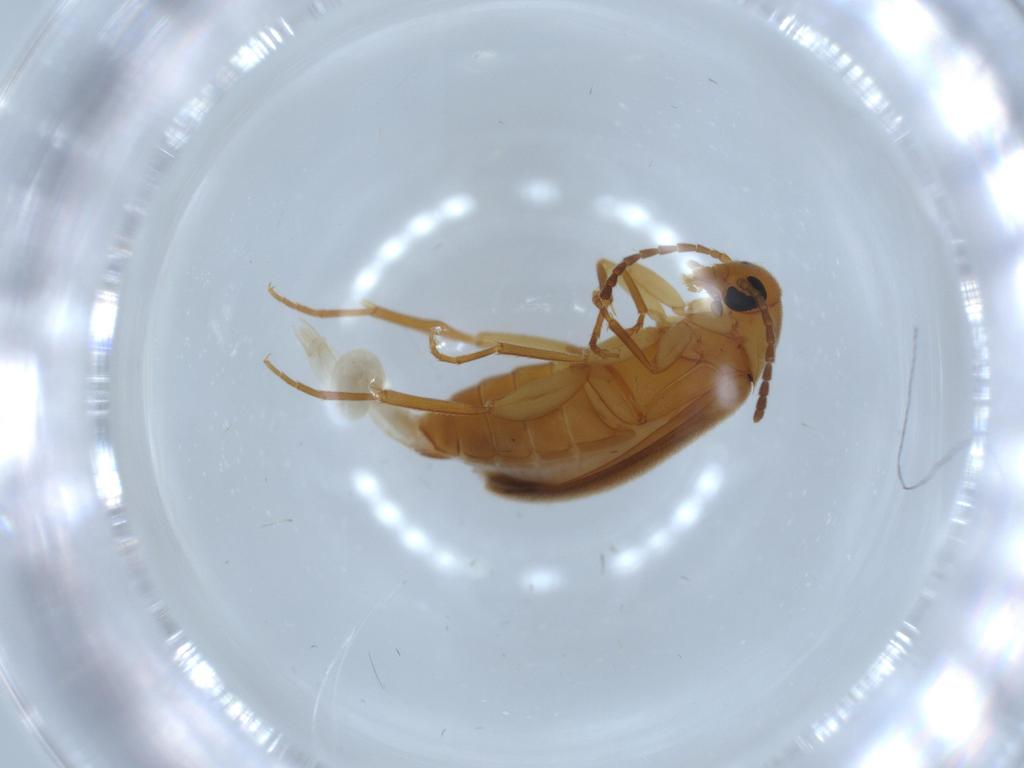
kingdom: Animalia
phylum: Arthropoda
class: Insecta
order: Coleoptera
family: Scraptiidae
